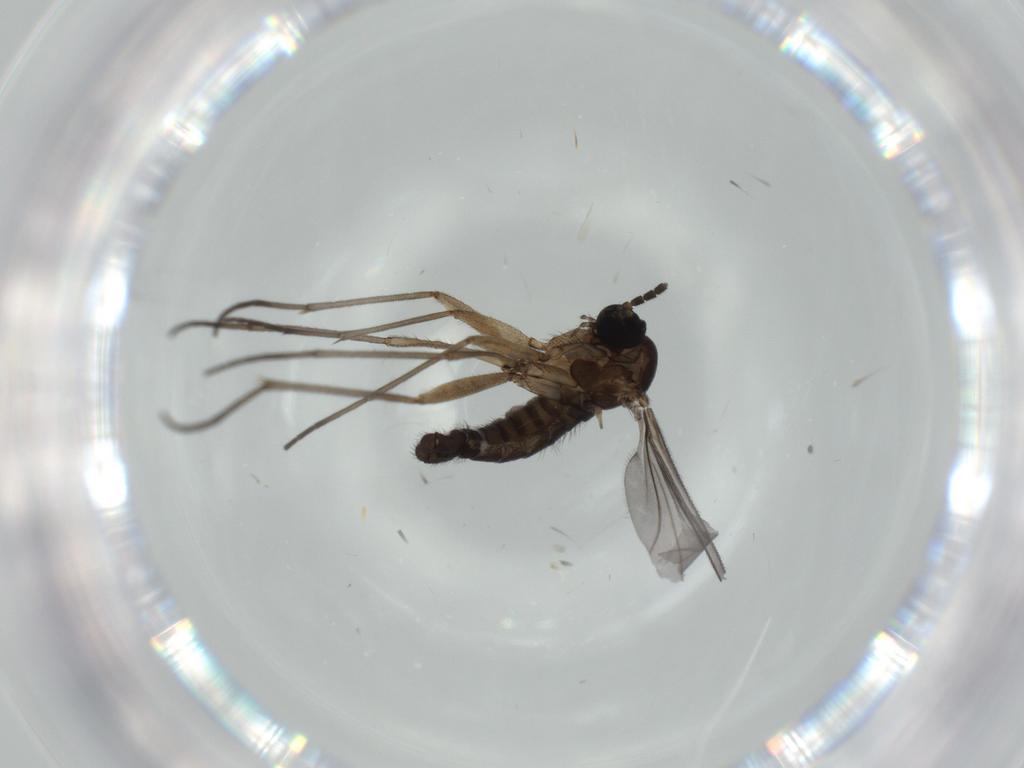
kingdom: Animalia
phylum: Arthropoda
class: Insecta
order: Diptera
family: Sciaridae
